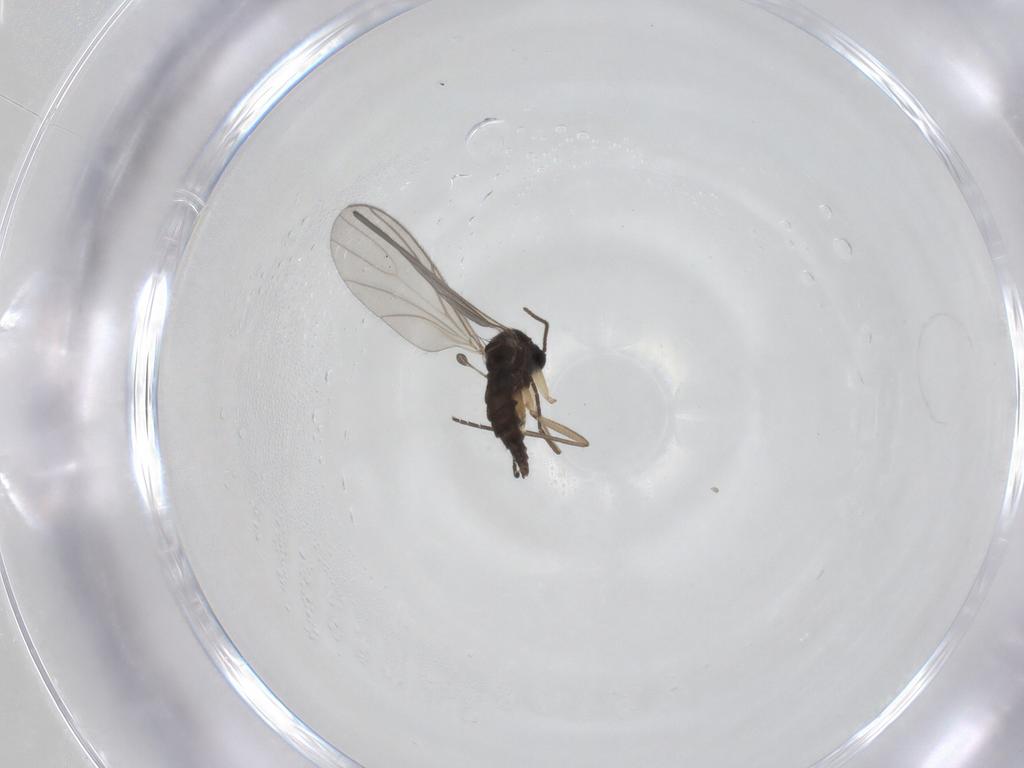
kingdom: Animalia
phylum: Arthropoda
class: Insecta
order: Diptera
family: Sciaridae
